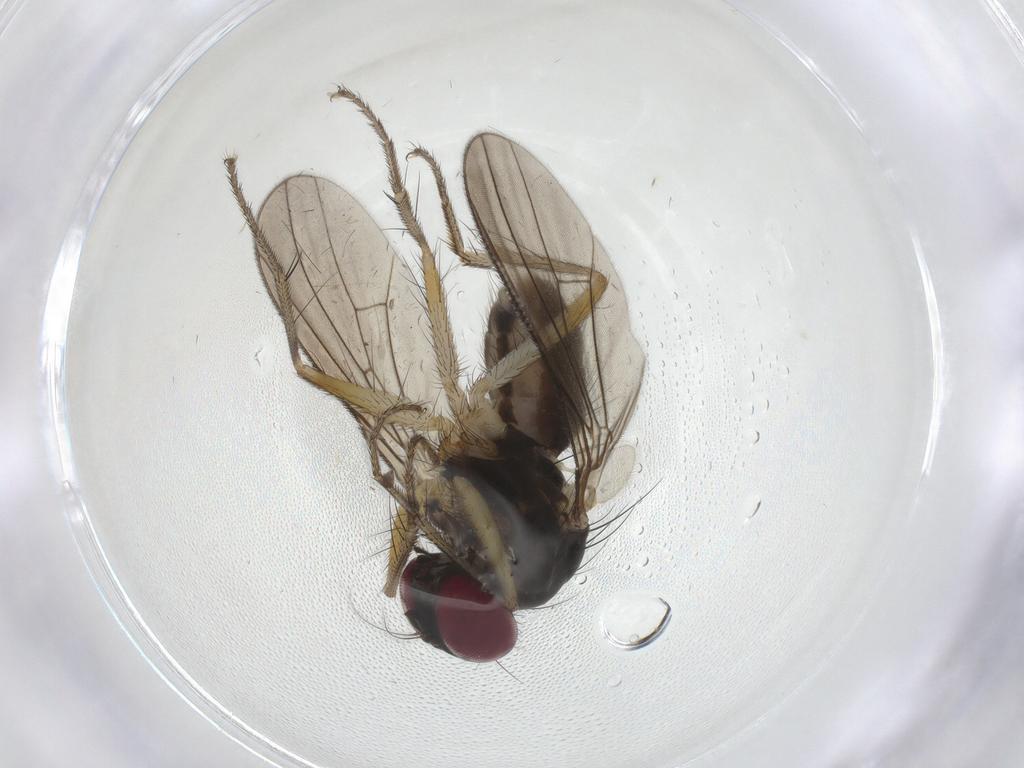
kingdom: Animalia
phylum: Arthropoda
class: Insecta
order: Diptera
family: Anthomyiidae
